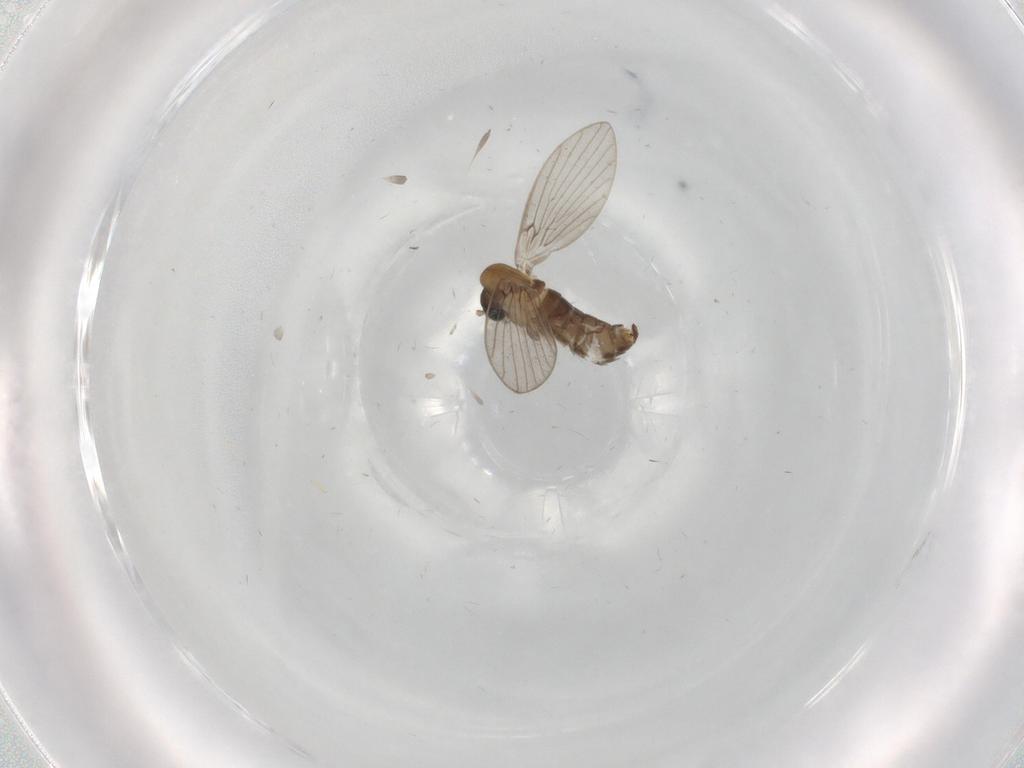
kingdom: Animalia
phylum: Arthropoda
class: Insecta
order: Diptera
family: Psychodidae
